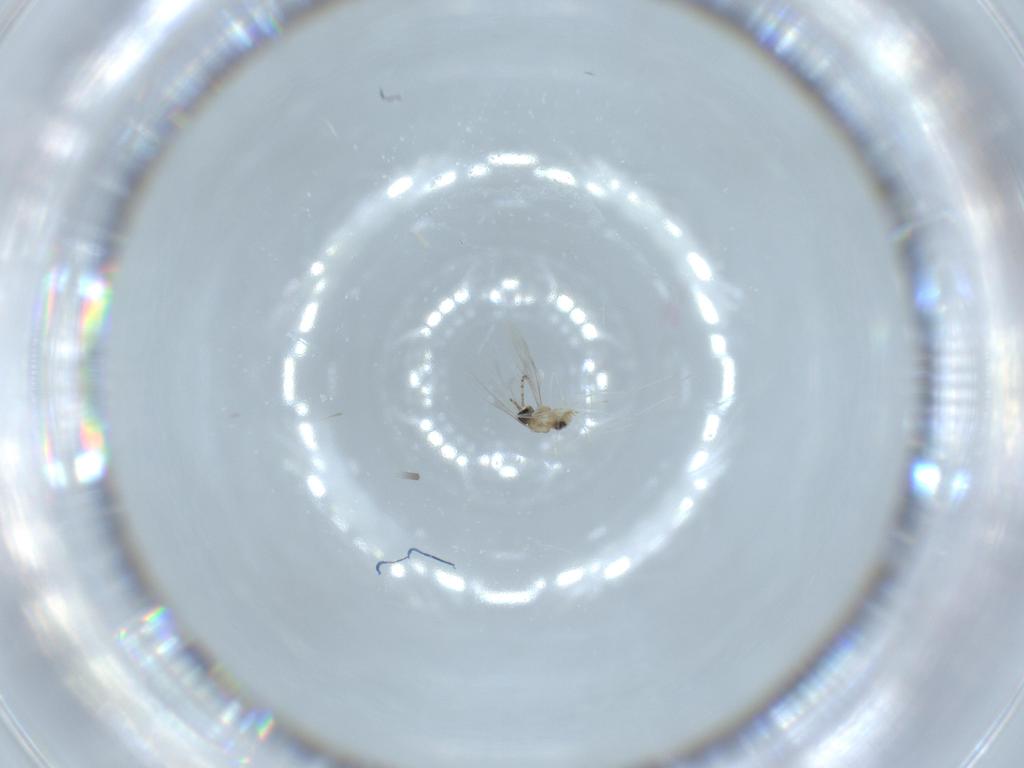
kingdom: Animalia
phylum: Arthropoda
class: Insecta
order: Diptera
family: Cecidomyiidae
